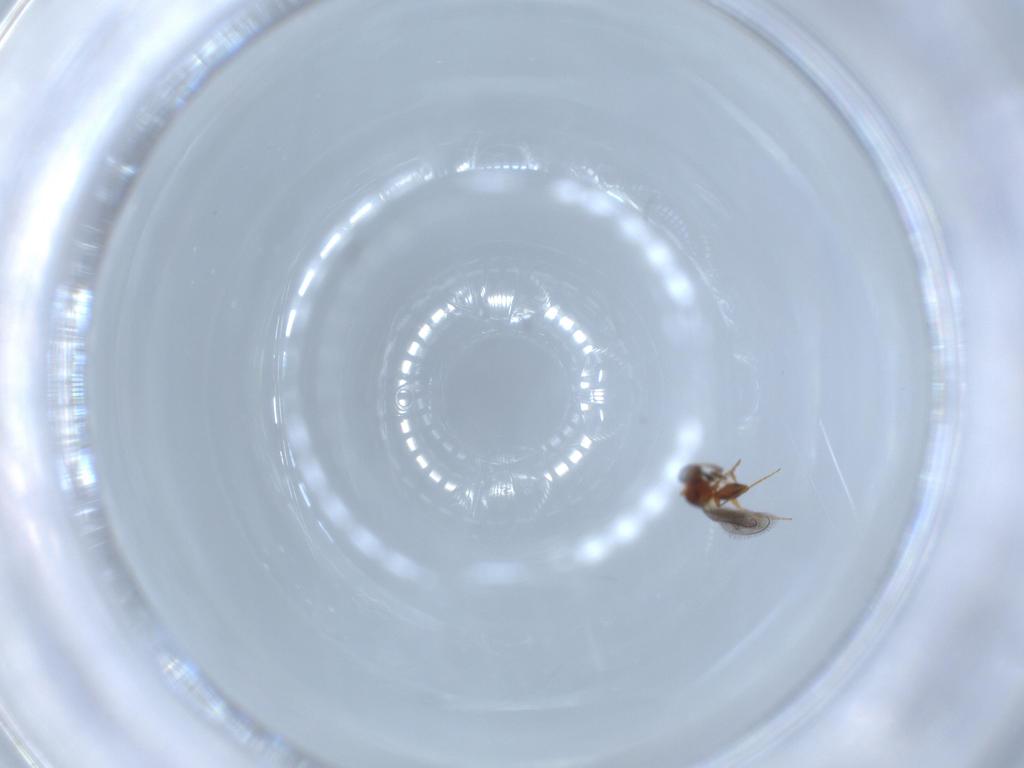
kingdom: Animalia
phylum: Arthropoda
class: Insecta
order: Hymenoptera
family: Platygastridae
